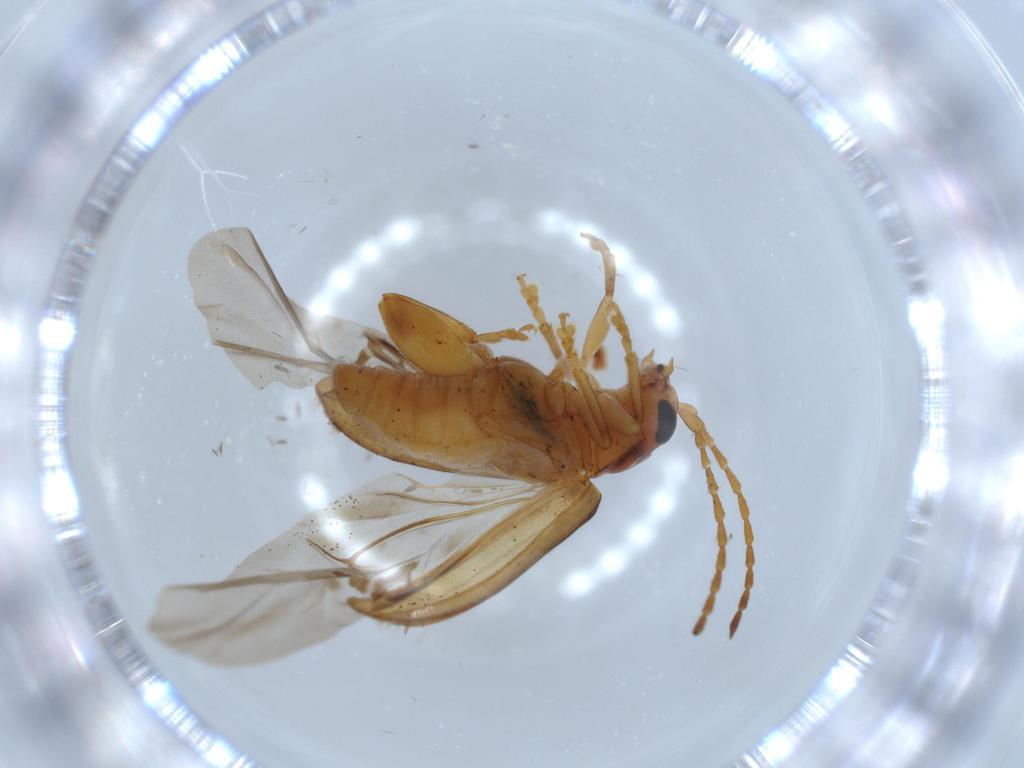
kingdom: Animalia
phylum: Arthropoda
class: Insecta
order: Coleoptera
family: Chrysomelidae
